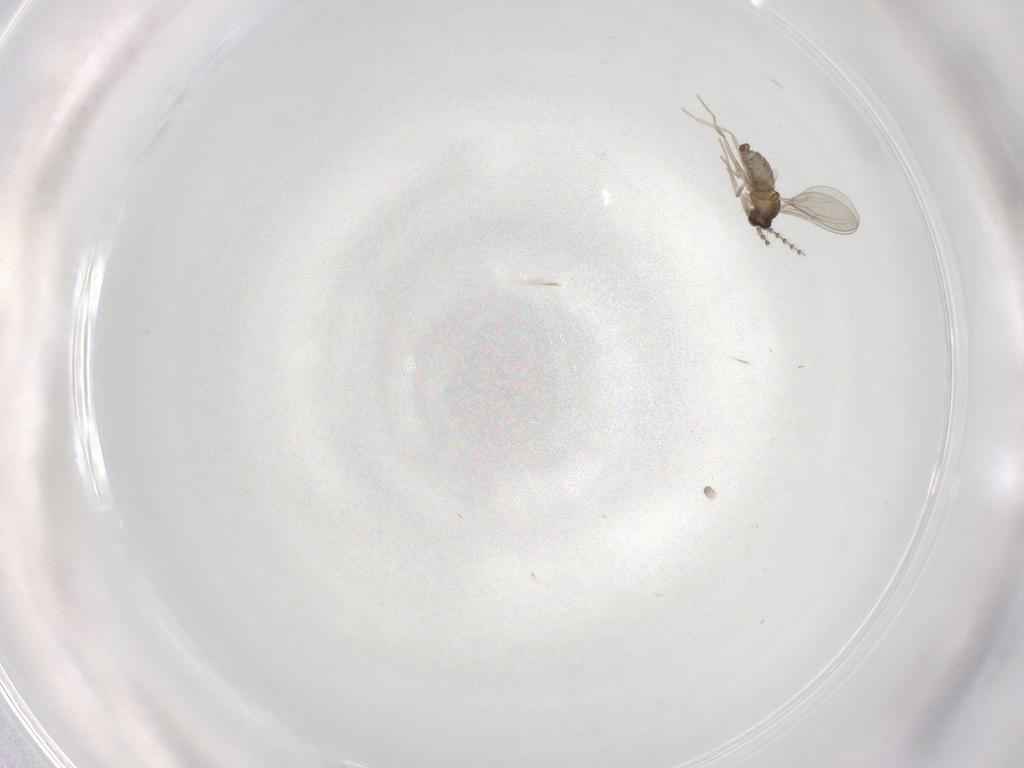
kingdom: Animalia
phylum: Arthropoda
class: Insecta
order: Diptera
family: Cecidomyiidae
